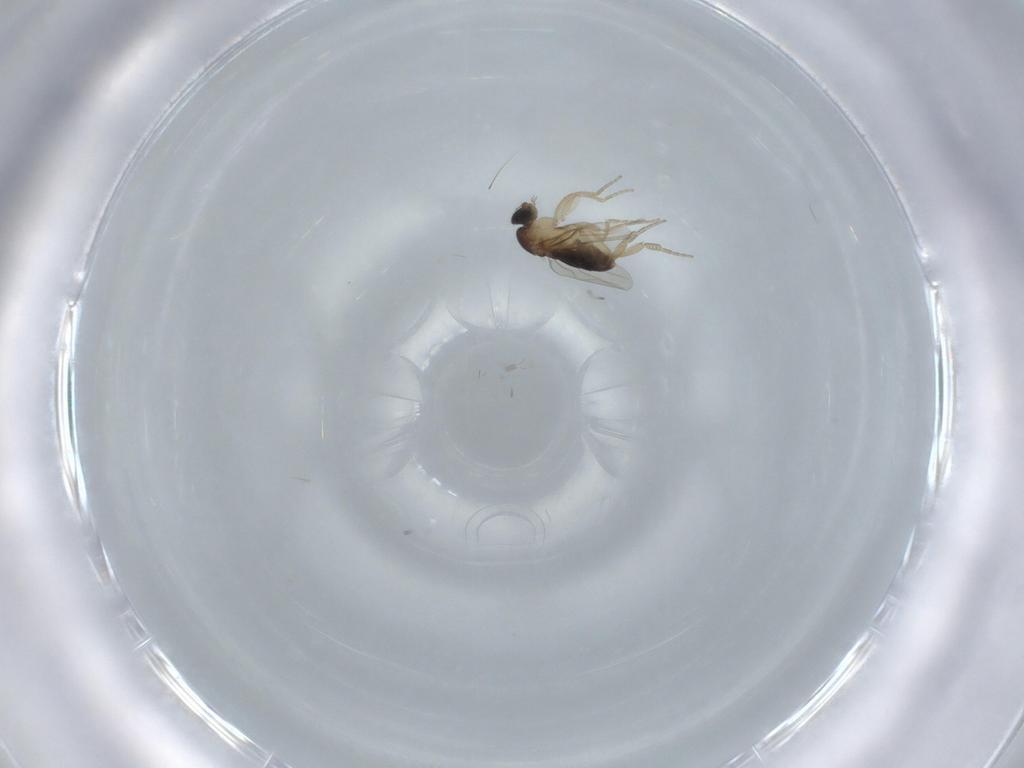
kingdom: Animalia
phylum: Arthropoda
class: Insecta
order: Diptera
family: Phoridae
